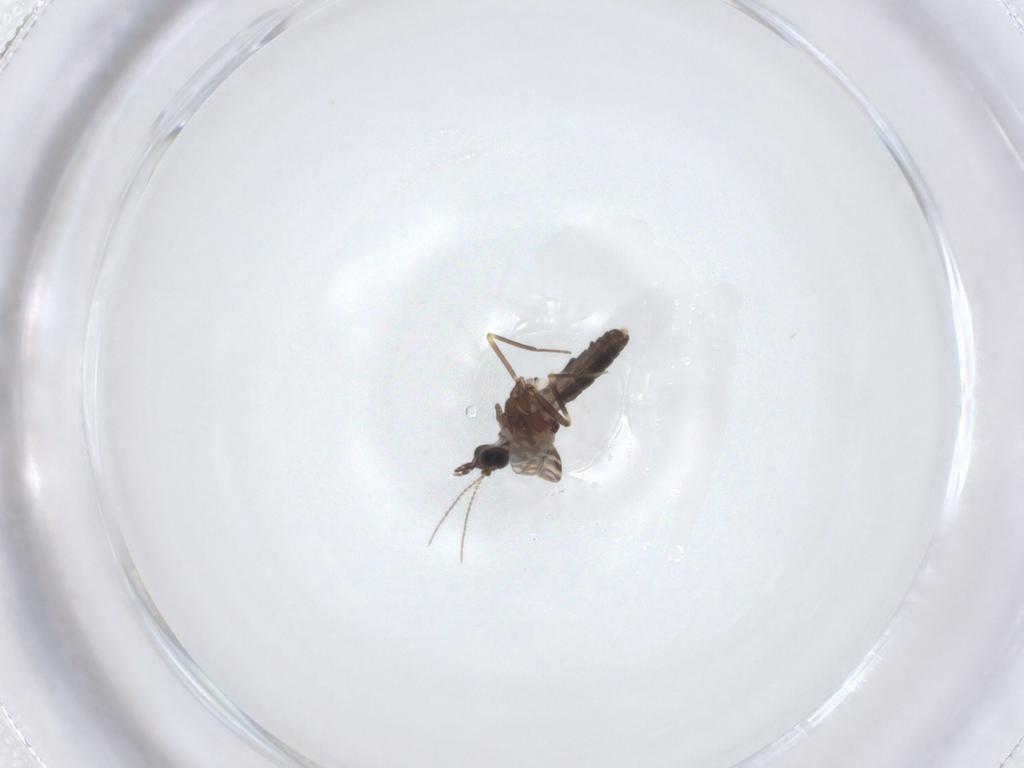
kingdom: Animalia
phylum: Arthropoda
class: Insecta
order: Diptera
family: Ceratopogonidae
